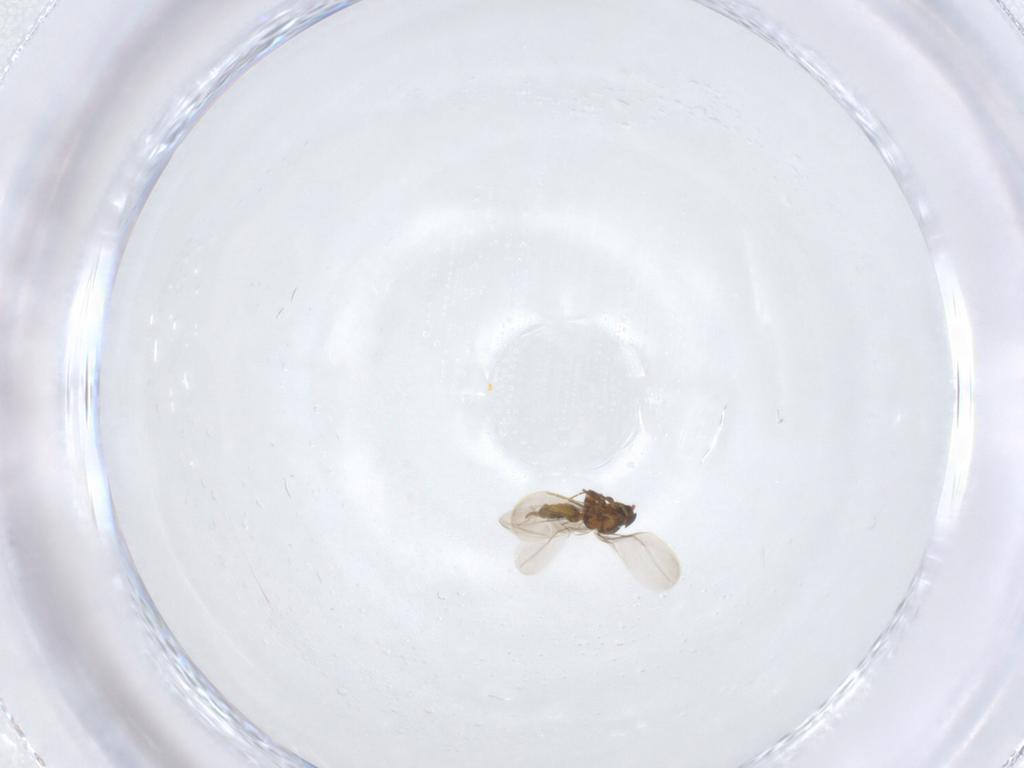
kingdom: Animalia
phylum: Arthropoda
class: Insecta
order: Hemiptera
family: Aleyrodidae
